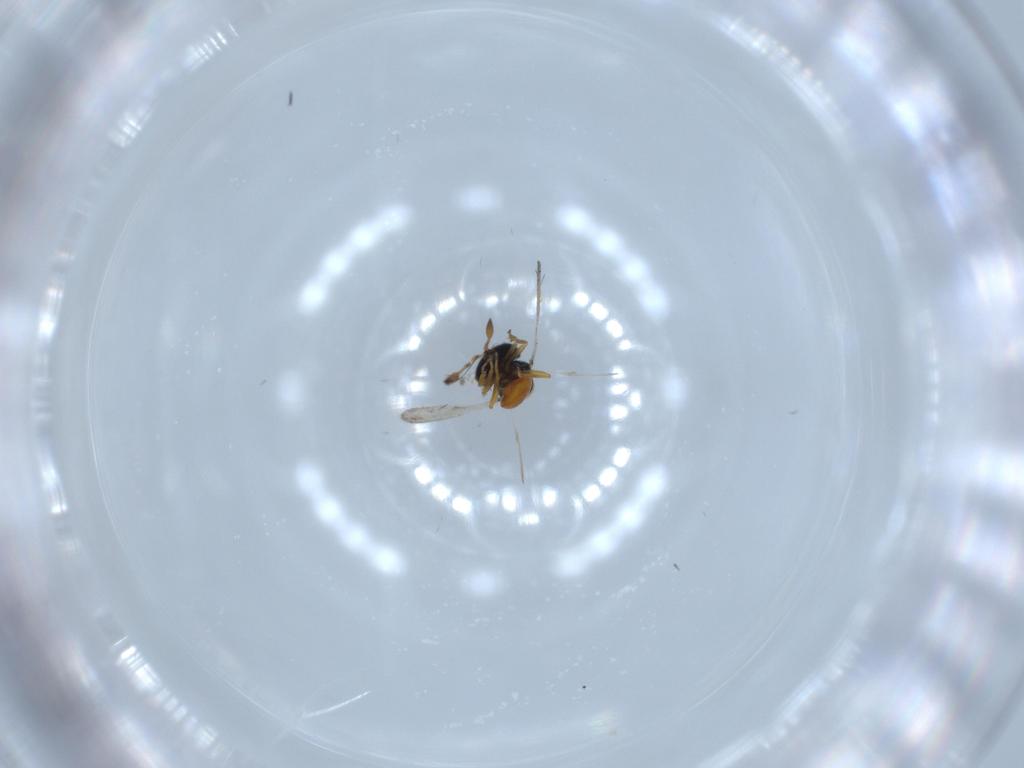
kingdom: Animalia
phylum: Arthropoda
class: Insecta
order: Hymenoptera
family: Scelionidae
